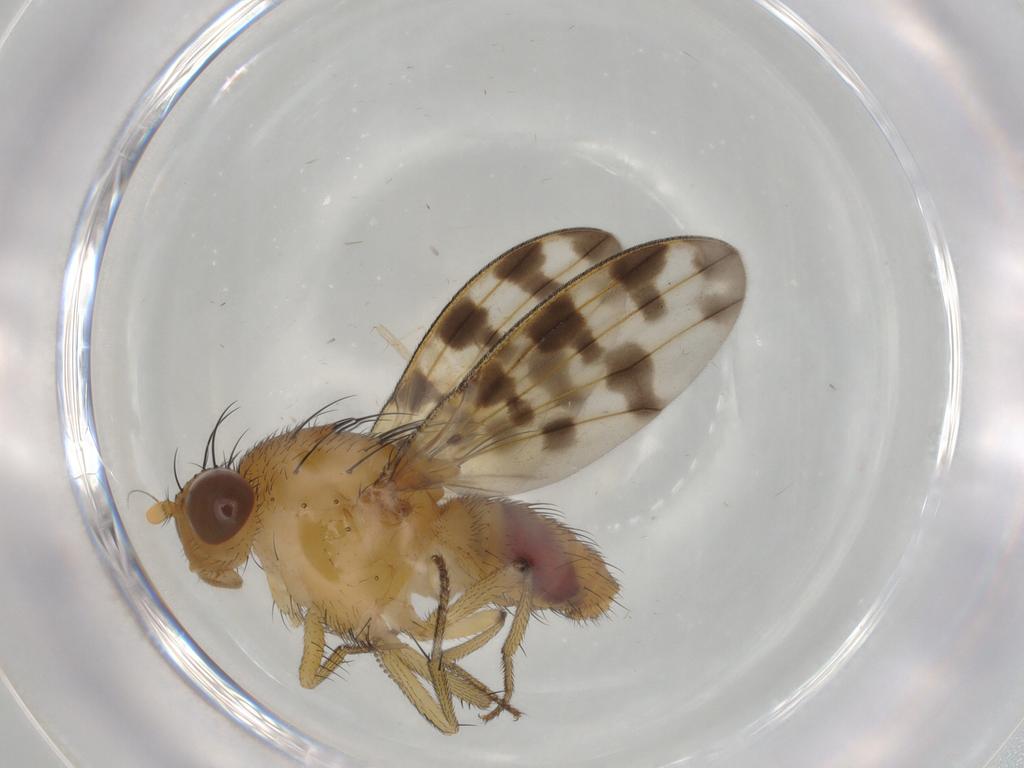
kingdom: Animalia
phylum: Arthropoda
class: Insecta
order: Diptera
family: Cecidomyiidae
